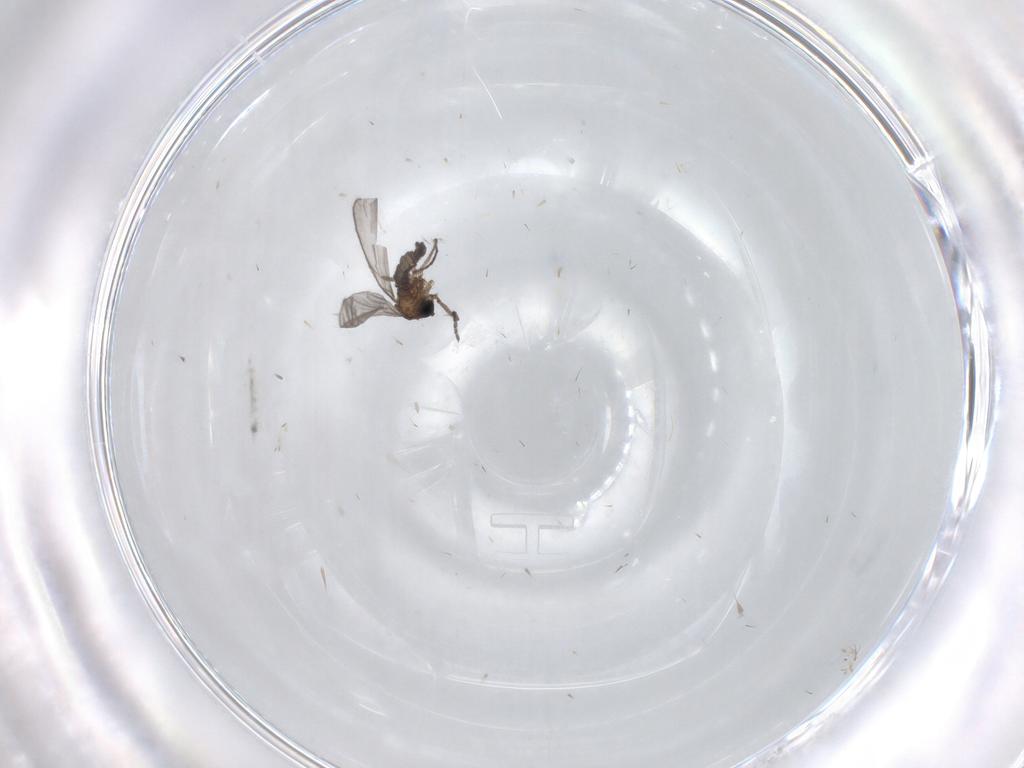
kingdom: Animalia
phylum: Arthropoda
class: Insecta
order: Diptera
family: Sciaridae
